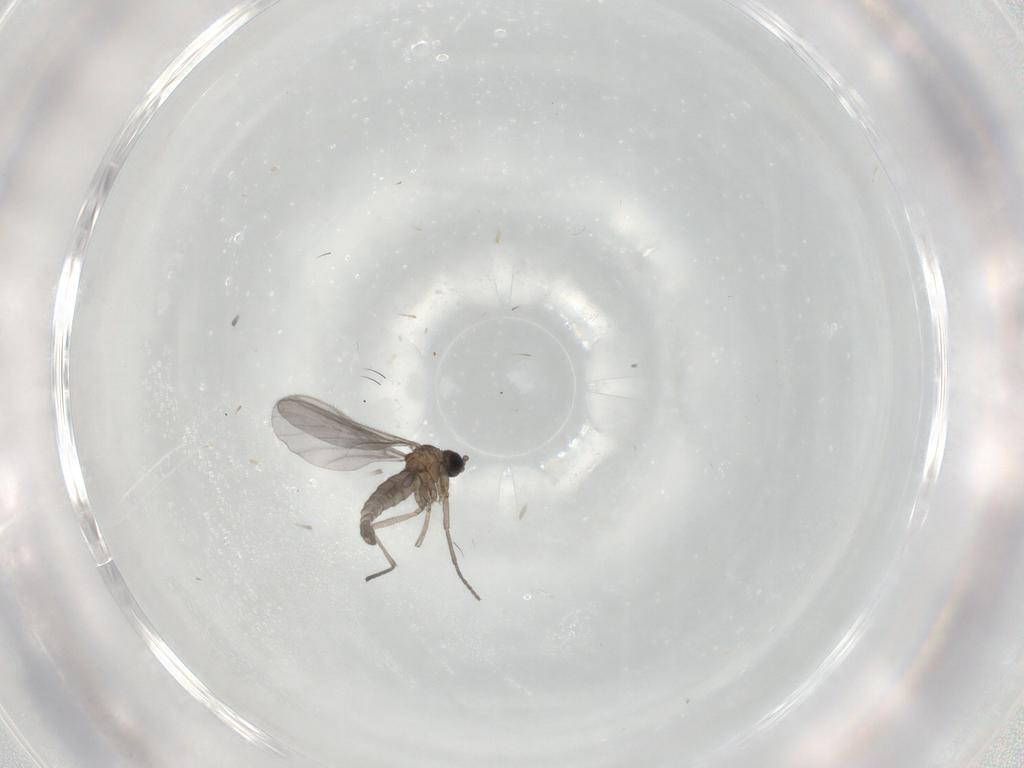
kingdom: Animalia
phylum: Arthropoda
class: Insecta
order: Diptera
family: Sciaridae
